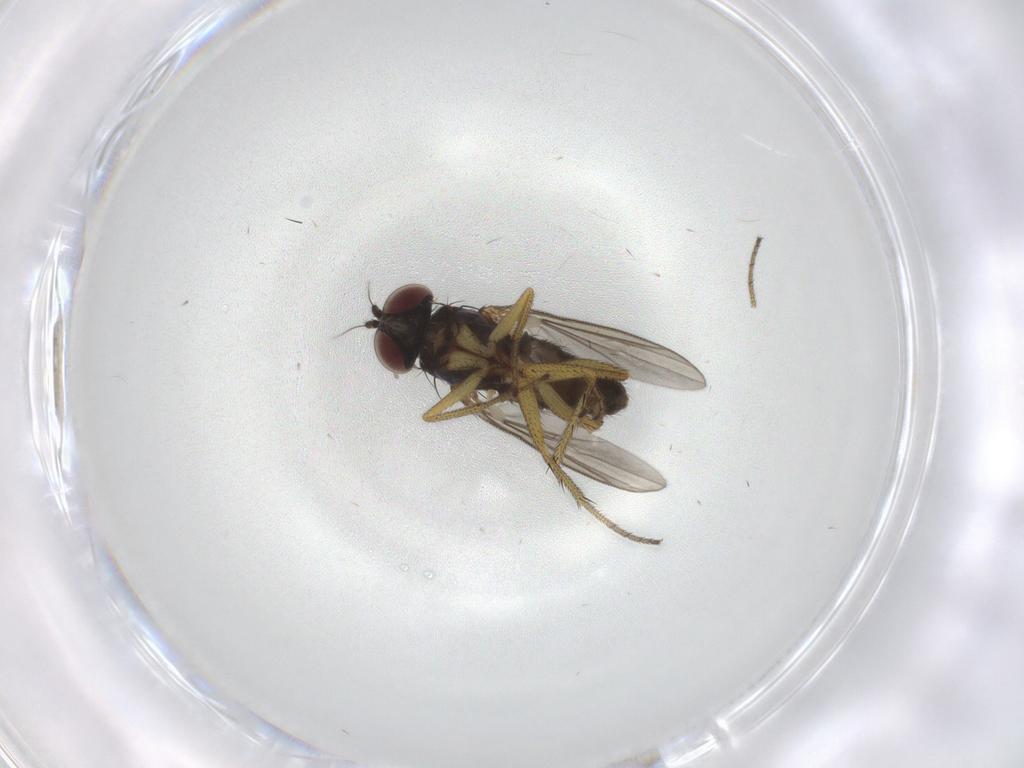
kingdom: Animalia
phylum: Arthropoda
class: Insecta
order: Diptera
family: Dolichopodidae
